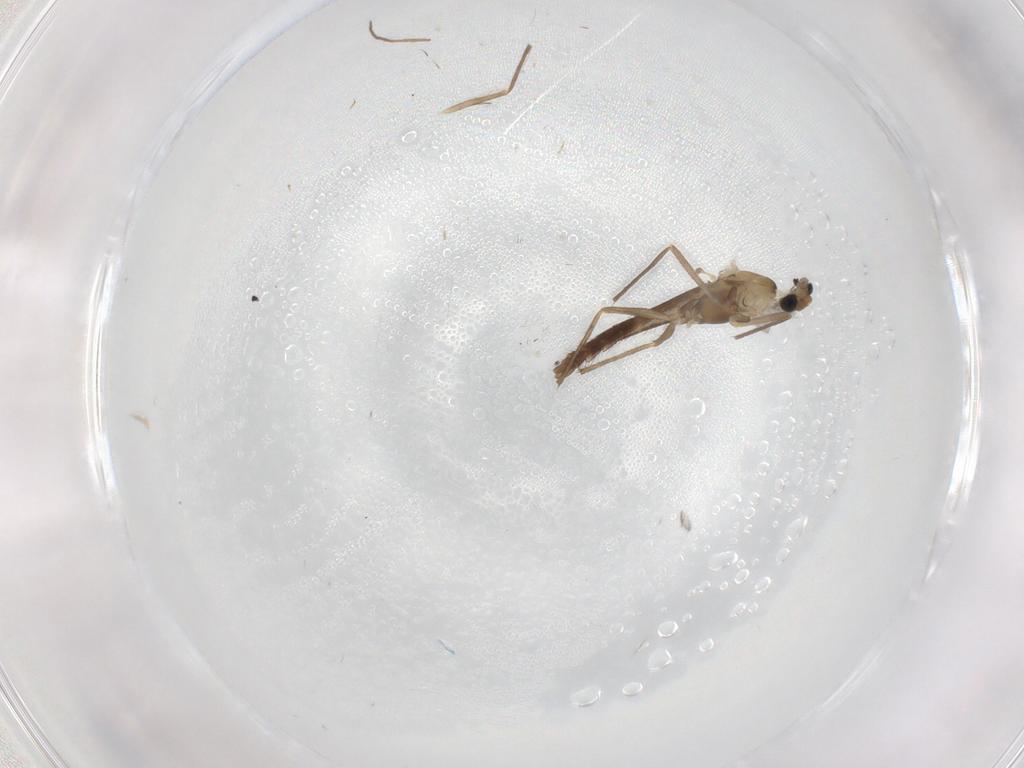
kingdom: Animalia
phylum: Arthropoda
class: Insecta
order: Diptera
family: Chironomidae
